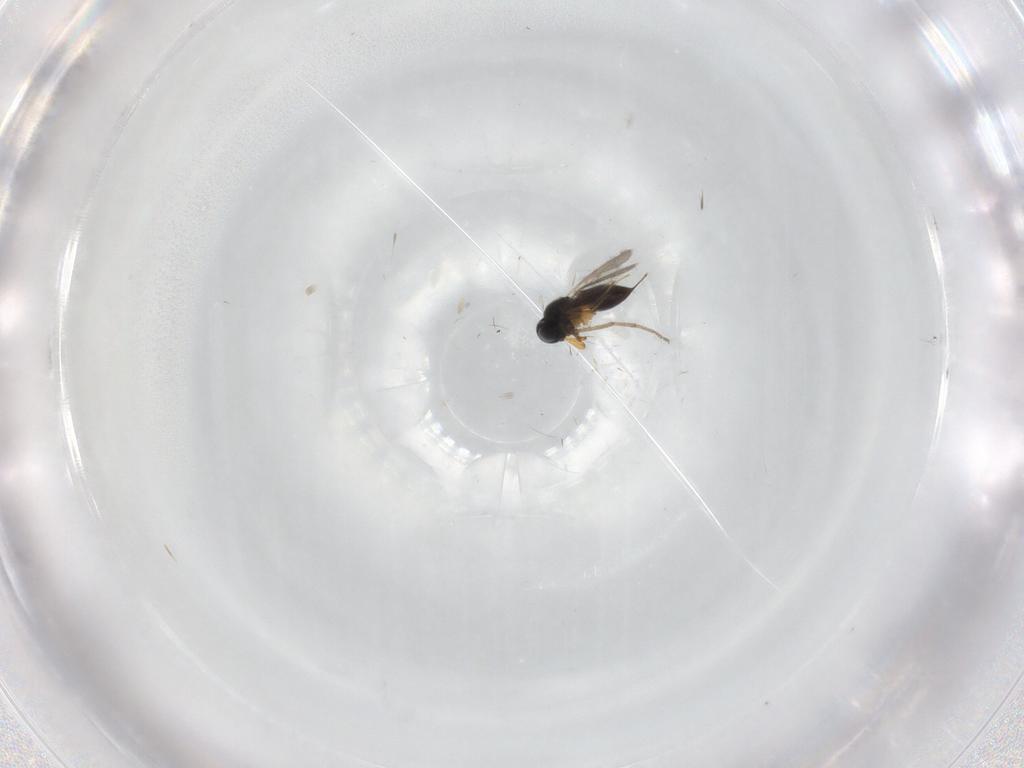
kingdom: Animalia
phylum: Arthropoda
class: Insecta
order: Hymenoptera
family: Scelionidae
